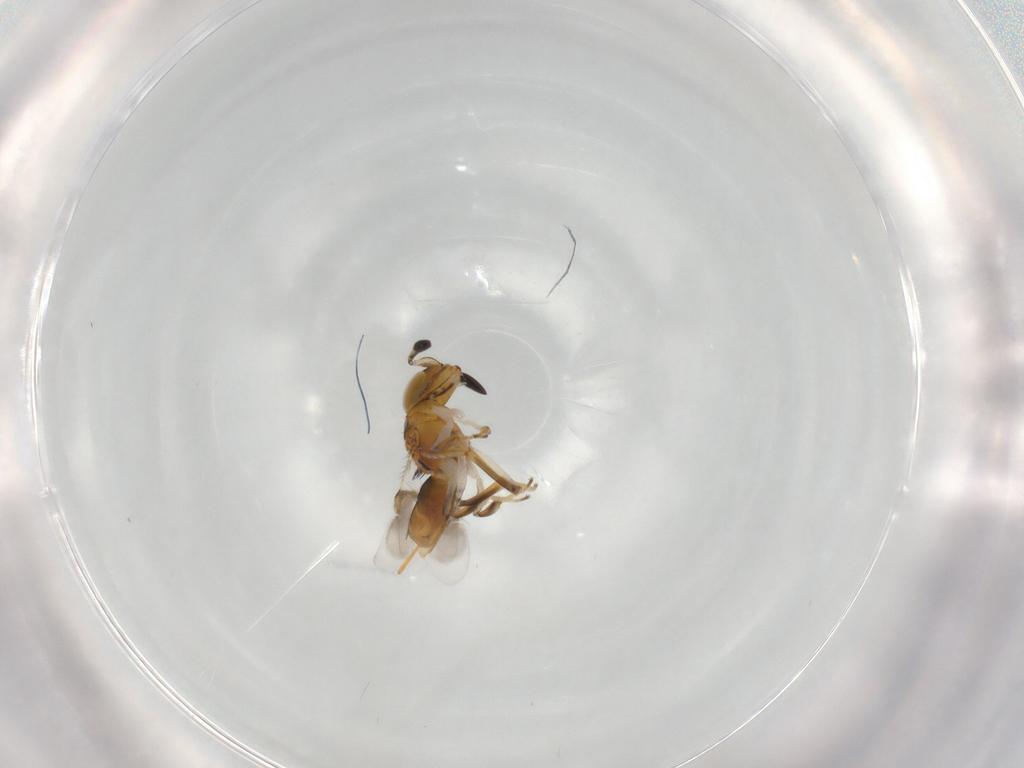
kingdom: Animalia
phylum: Arthropoda
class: Insecta
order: Hymenoptera
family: Encyrtidae
